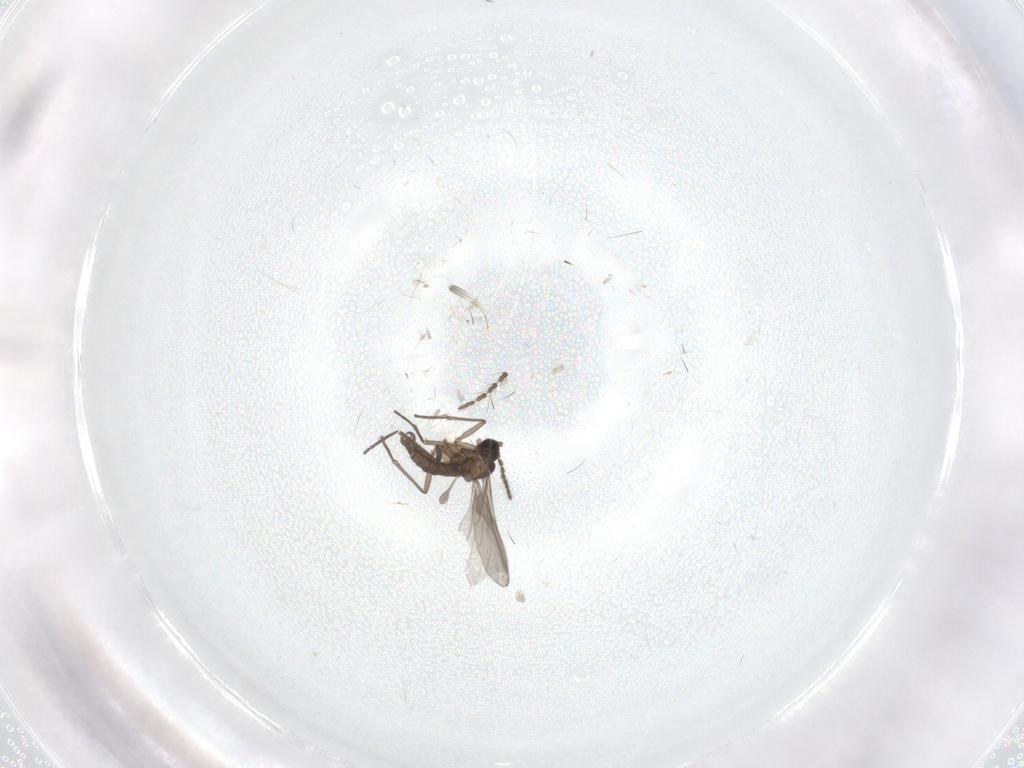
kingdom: Animalia
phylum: Arthropoda
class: Insecta
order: Diptera
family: Sciaridae
